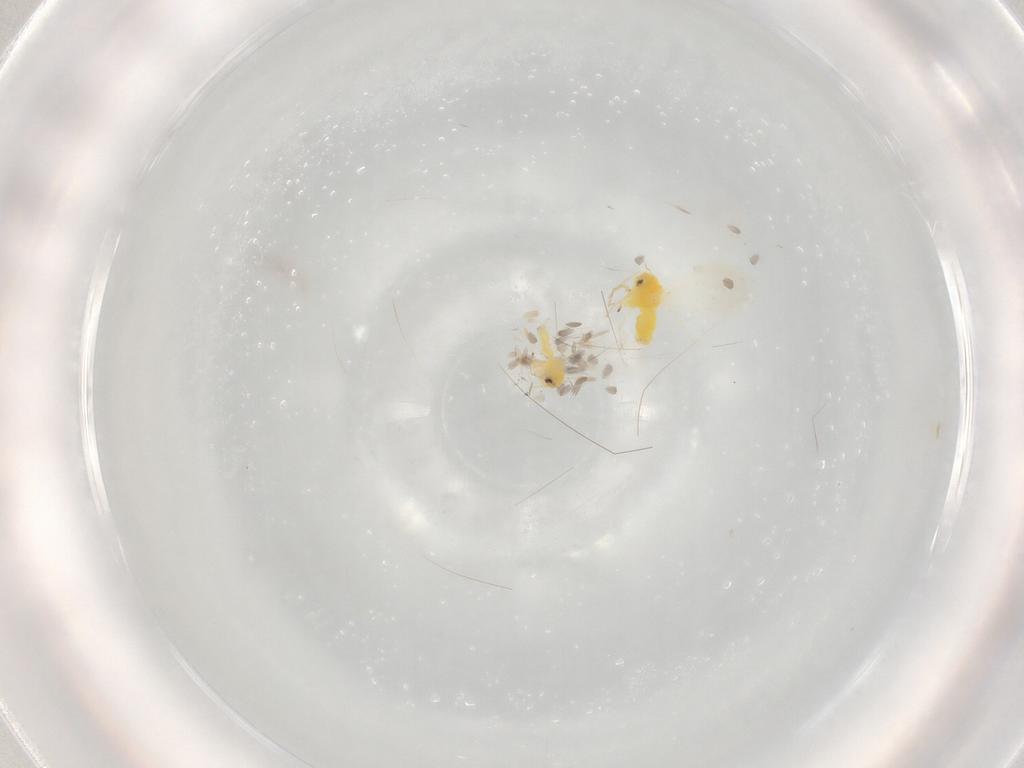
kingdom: Animalia
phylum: Arthropoda
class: Insecta
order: Hemiptera
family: Aleyrodidae
